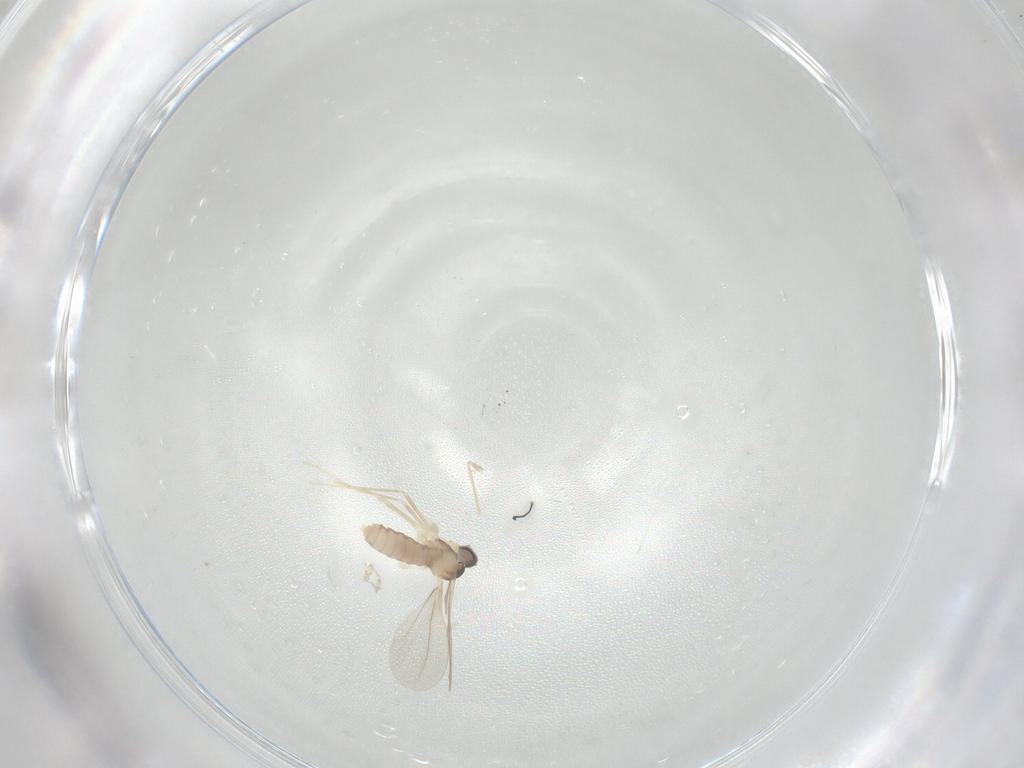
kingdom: Animalia
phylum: Arthropoda
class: Insecta
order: Diptera
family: Cecidomyiidae
